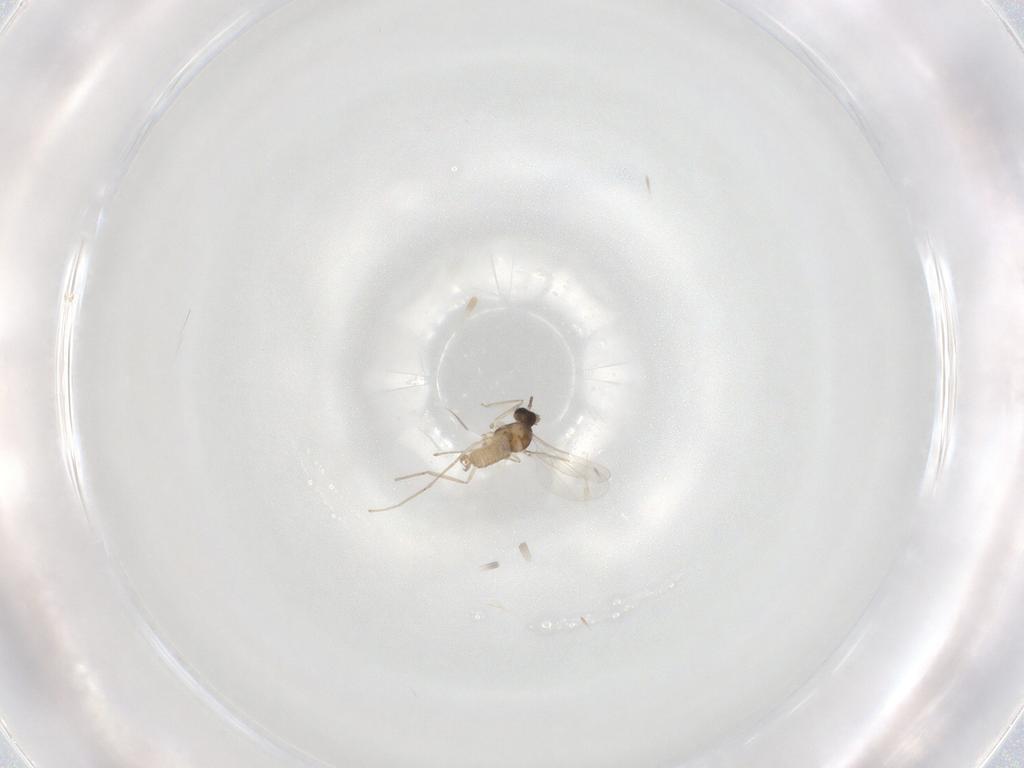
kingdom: Animalia
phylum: Arthropoda
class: Insecta
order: Diptera
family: Cecidomyiidae
